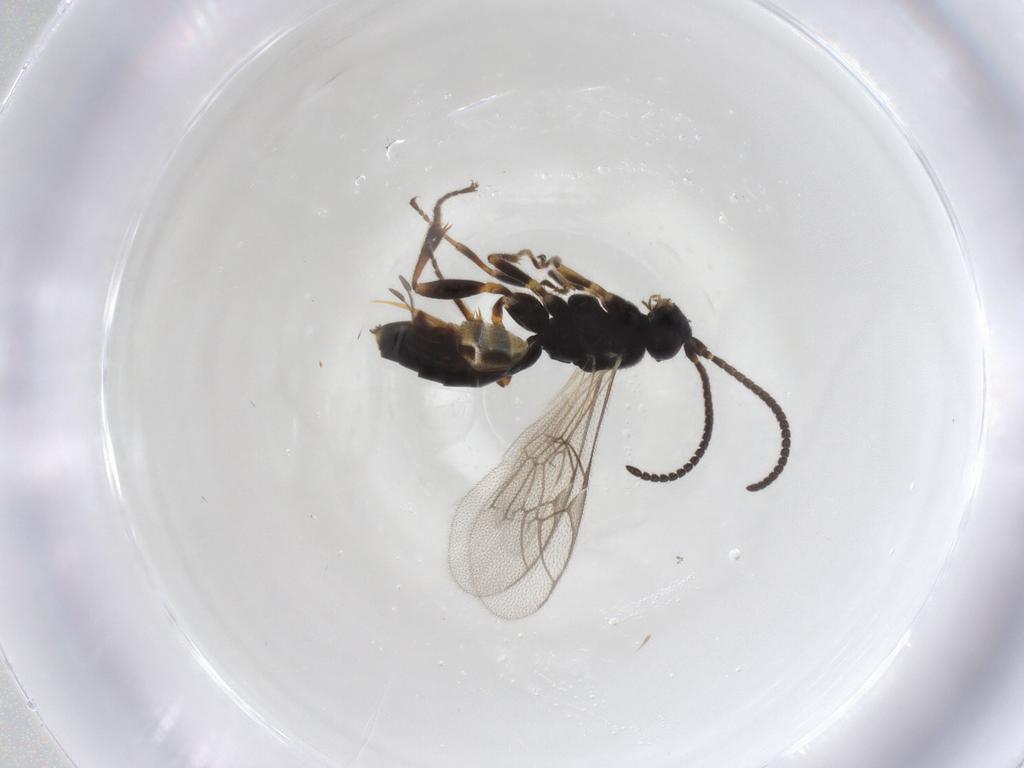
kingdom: Animalia
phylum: Arthropoda
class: Insecta
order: Hymenoptera
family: Ichneumonidae
